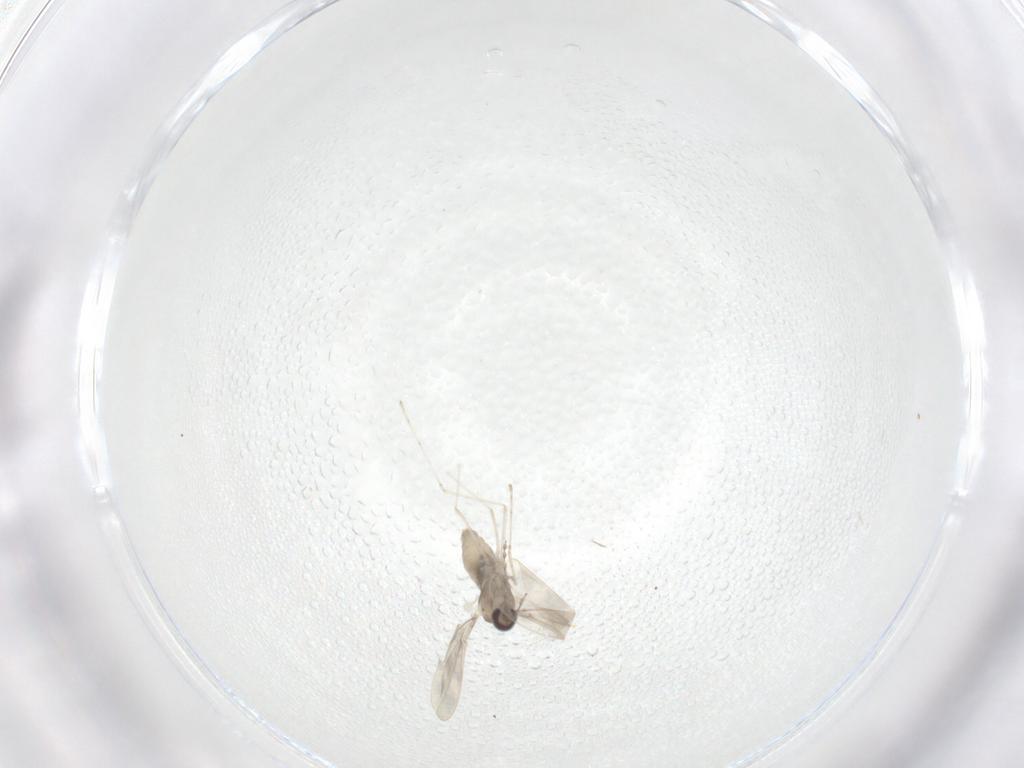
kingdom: Animalia
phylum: Arthropoda
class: Insecta
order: Diptera
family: Cecidomyiidae
